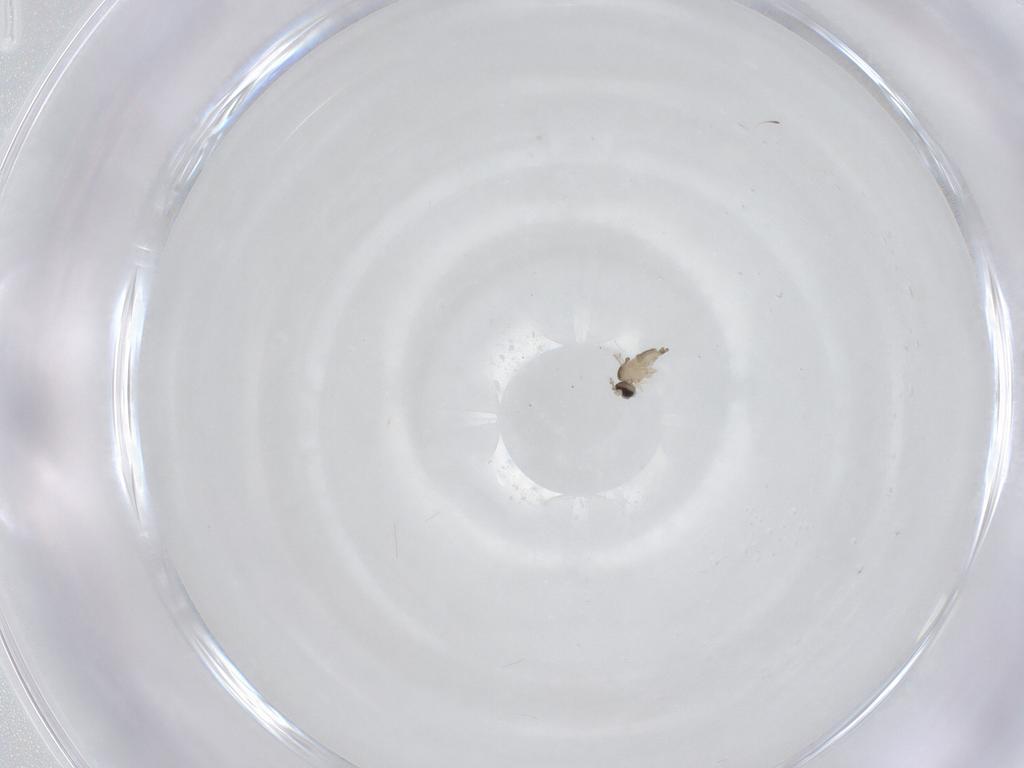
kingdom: Animalia
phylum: Arthropoda
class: Insecta
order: Diptera
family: Cecidomyiidae
